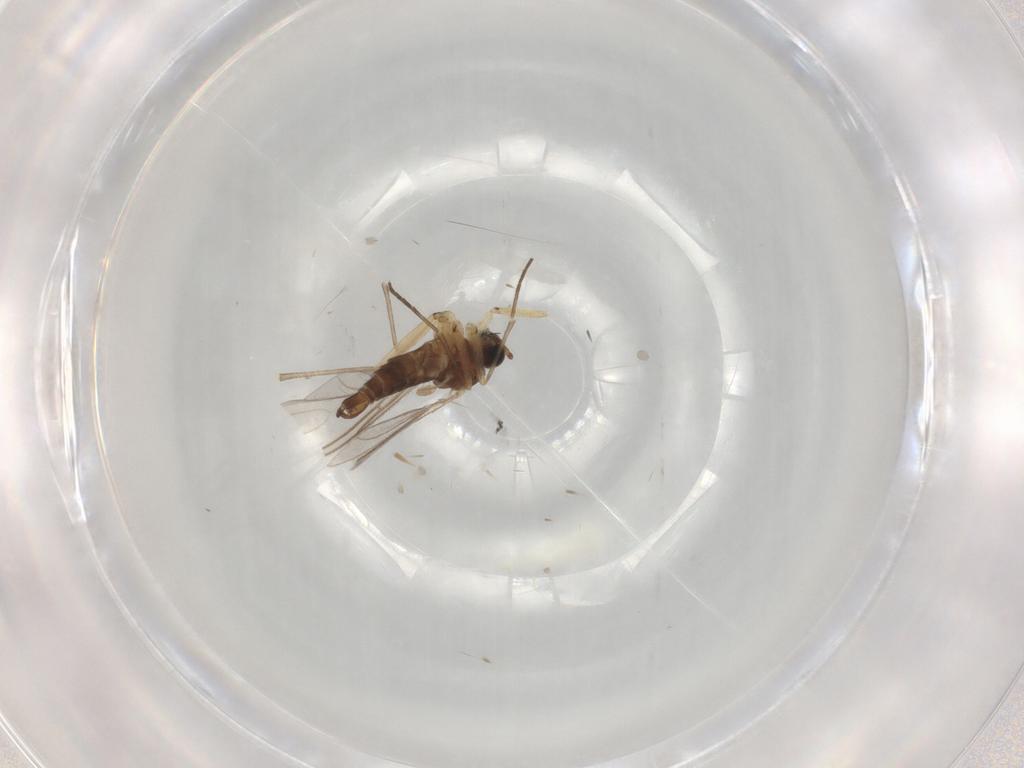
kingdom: Animalia
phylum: Arthropoda
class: Insecta
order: Diptera
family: Sciaridae
